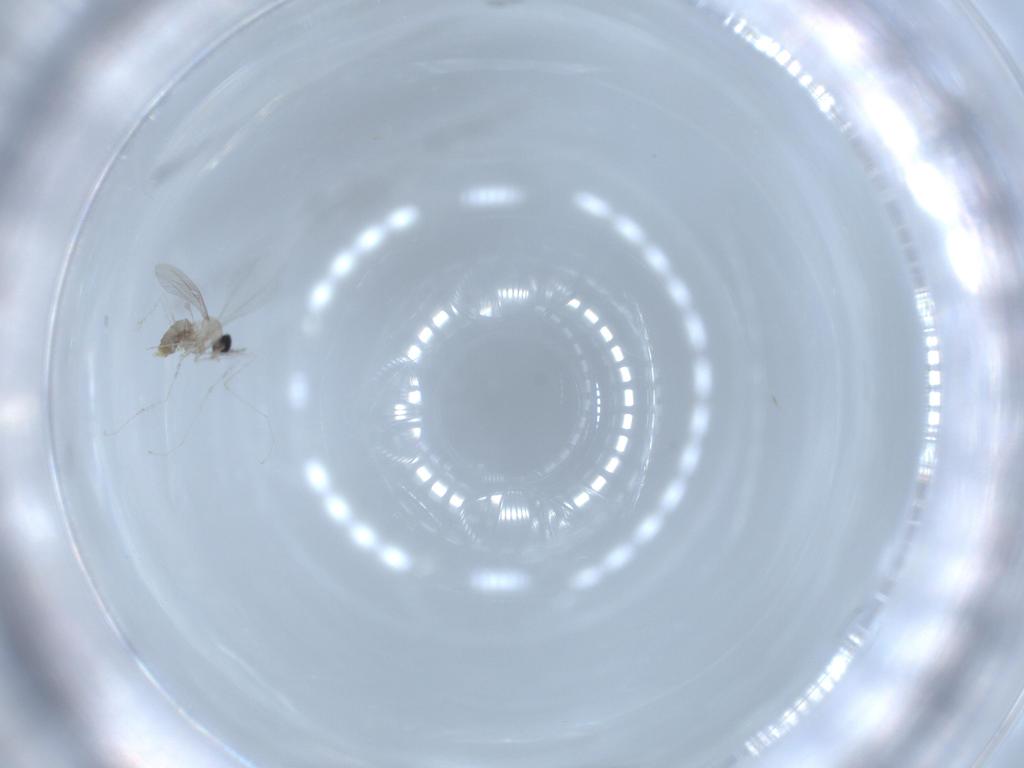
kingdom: Animalia
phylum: Arthropoda
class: Insecta
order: Diptera
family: Cecidomyiidae
